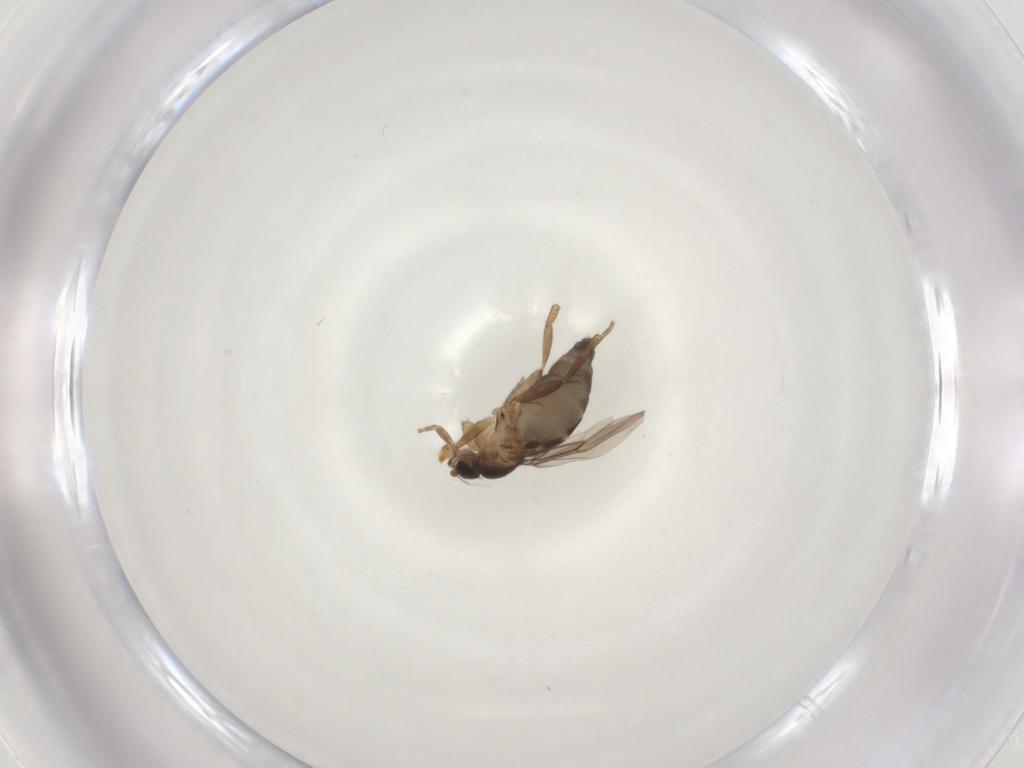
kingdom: Animalia
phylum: Arthropoda
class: Insecta
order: Diptera
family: Phoridae
